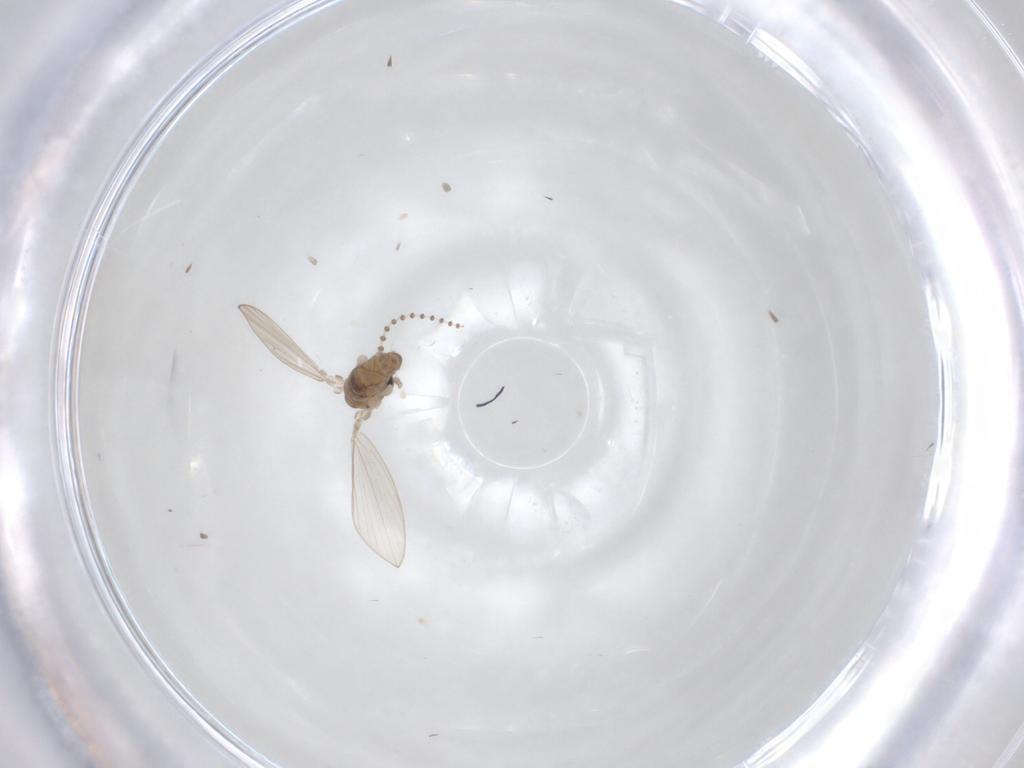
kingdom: Animalia
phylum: Arthropoda
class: Insecta
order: Diptera
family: Psychodidae
